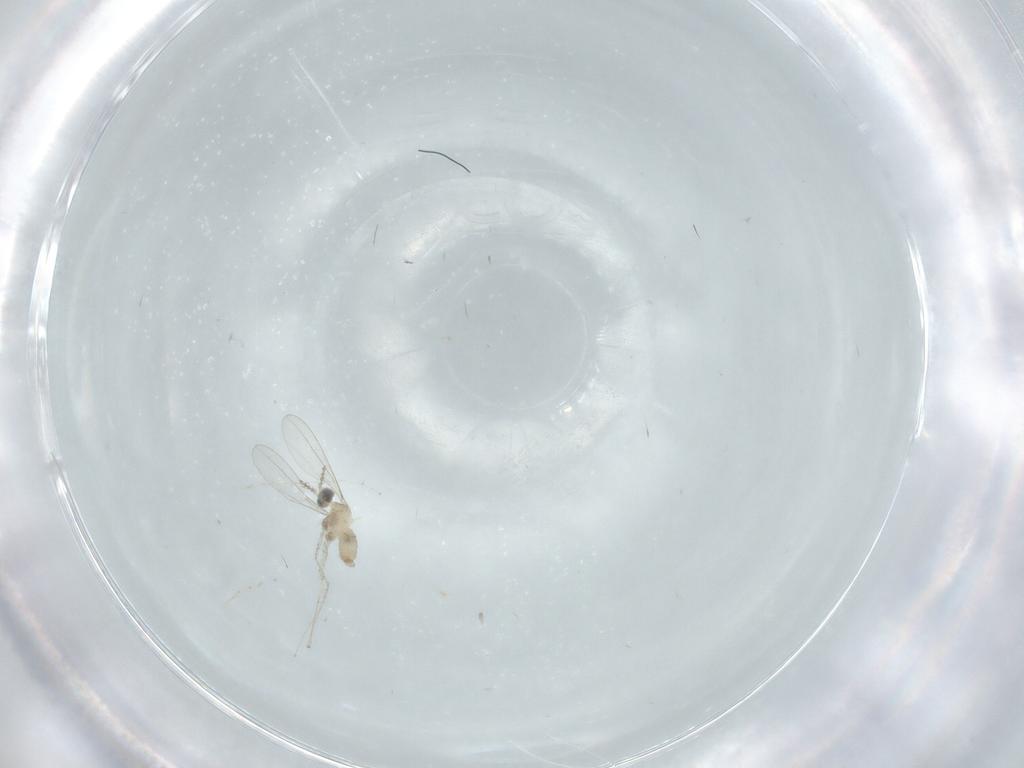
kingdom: Animalia
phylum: Arthropoda
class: Insecta
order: Diptera
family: Cecidomyiidae
